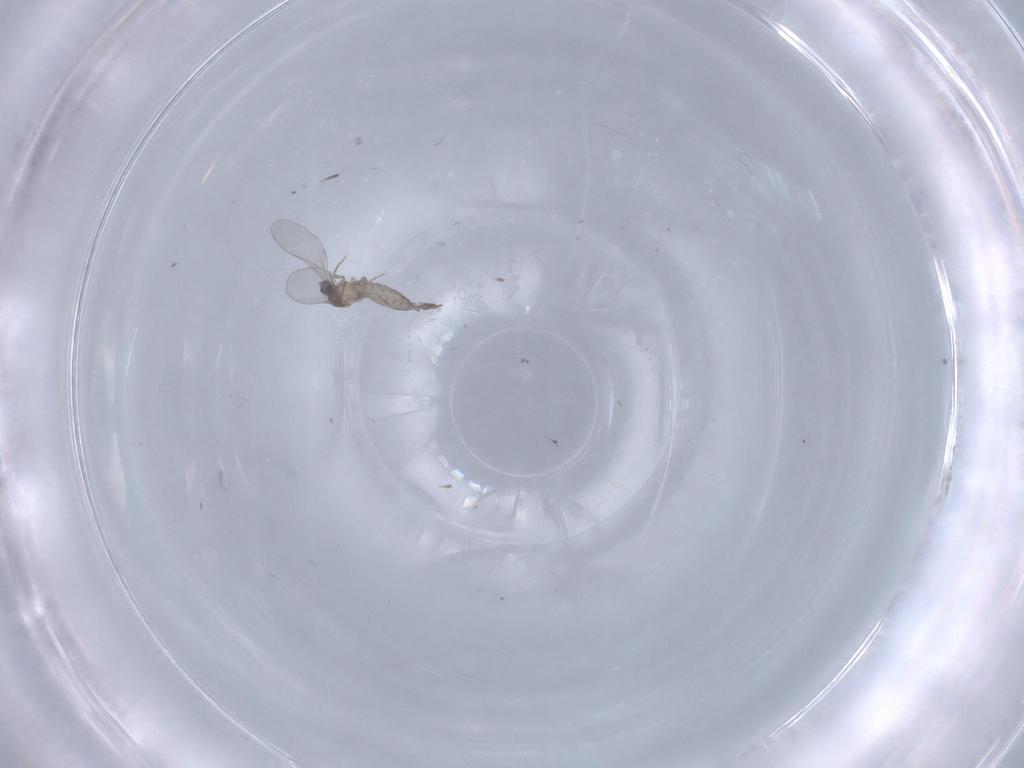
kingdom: Animalia
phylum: Arthropoda
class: Insecta
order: Diptera
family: Cecidomyiidae
